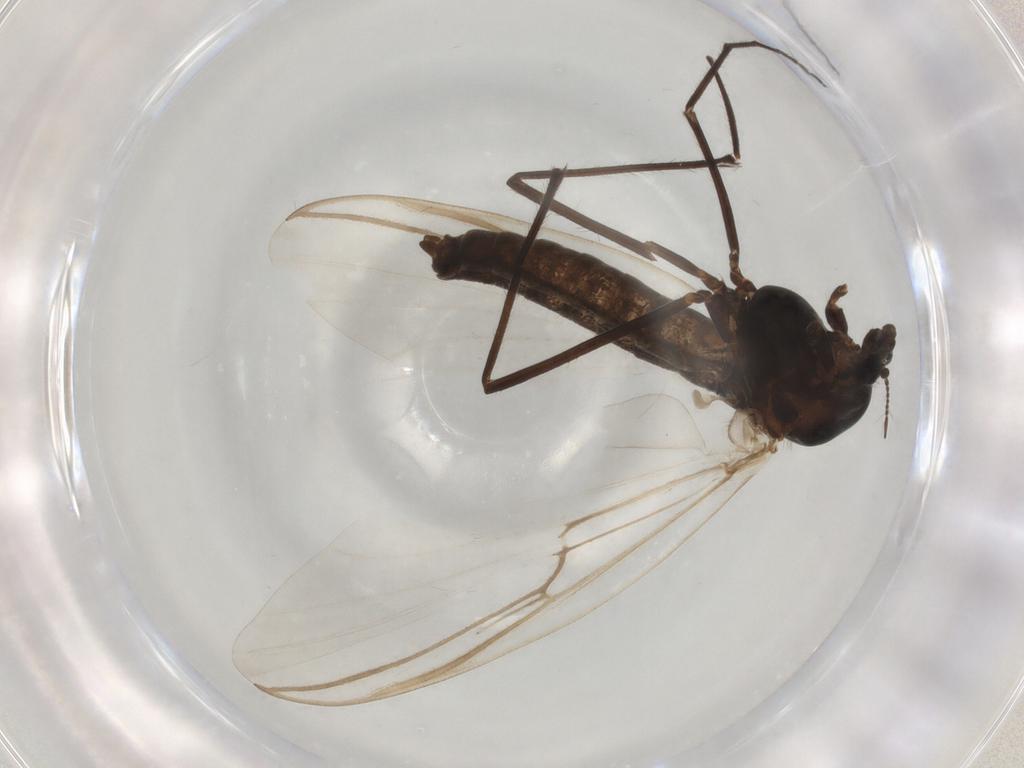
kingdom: Animalia
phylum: Arthropoda
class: Insecta
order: Diptera
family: Chironomidae
